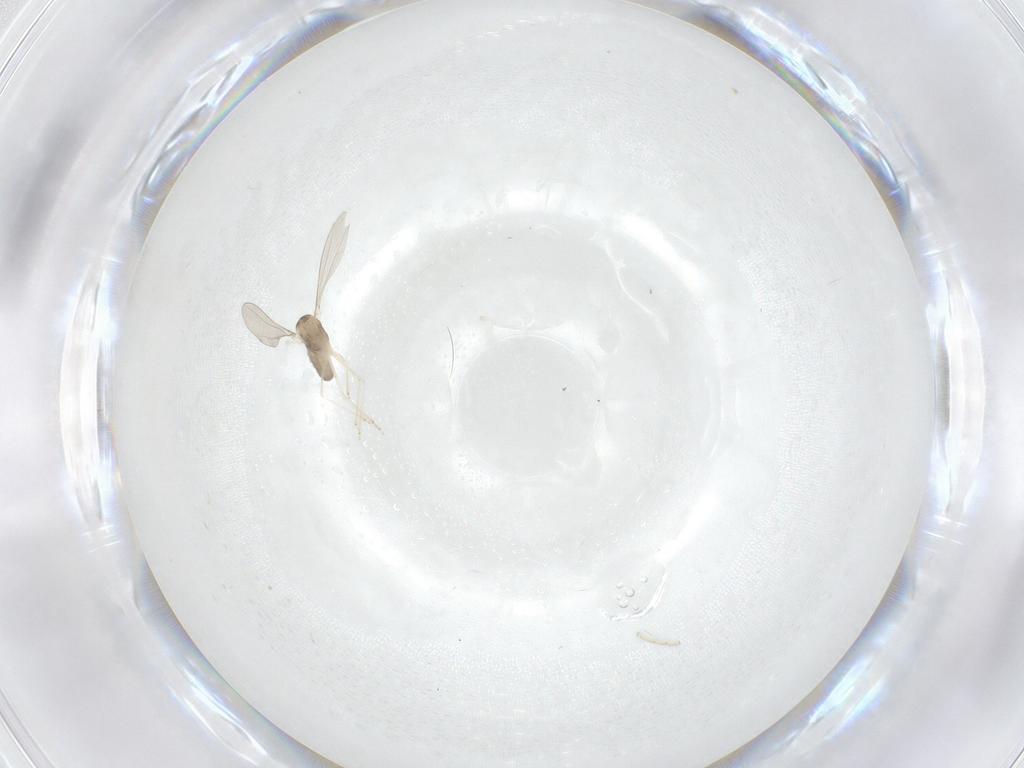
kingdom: Animalia
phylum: Arthropoda
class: Insecta
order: Diptera
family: Cecidomyiidae
